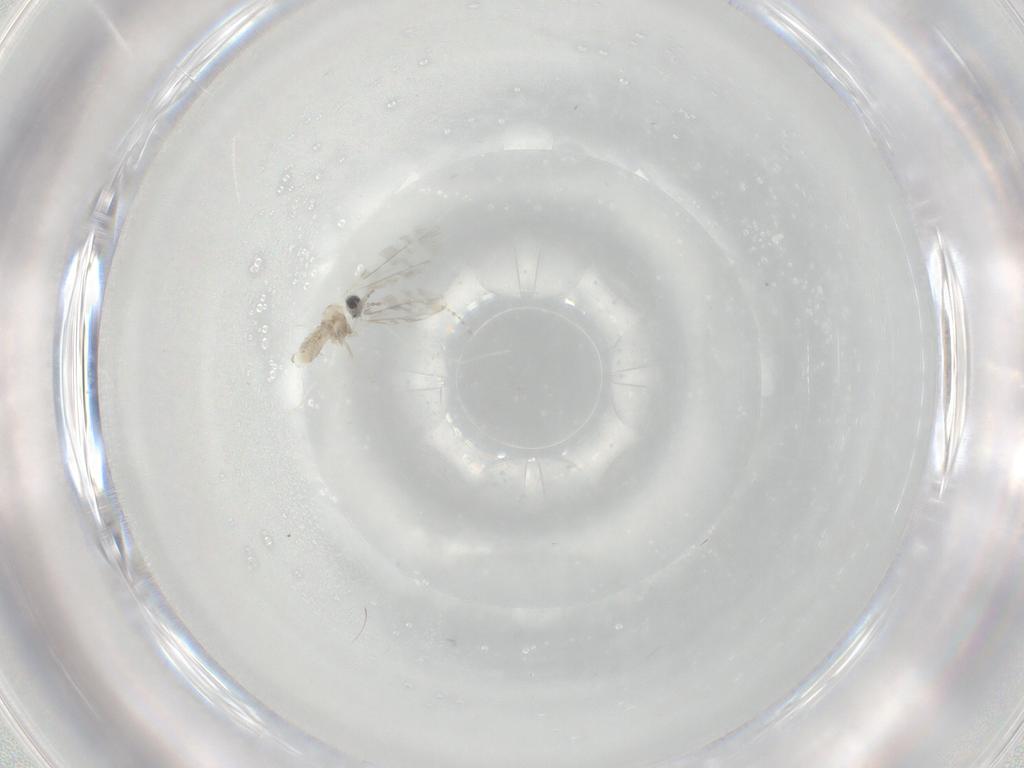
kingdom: Animalia
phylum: Arthropoda
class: Insecta
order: Diptera
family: Cecidomyiidae
